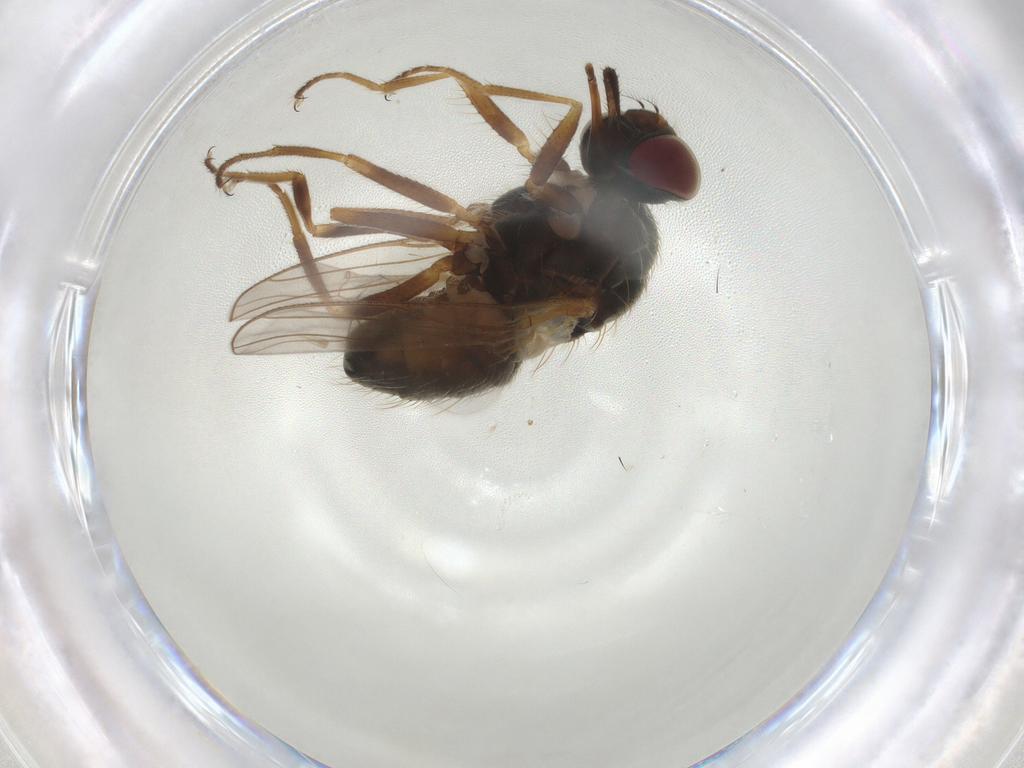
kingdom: Animalia
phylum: Arthropoda
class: Insecta
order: Diptera
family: Muscidae
